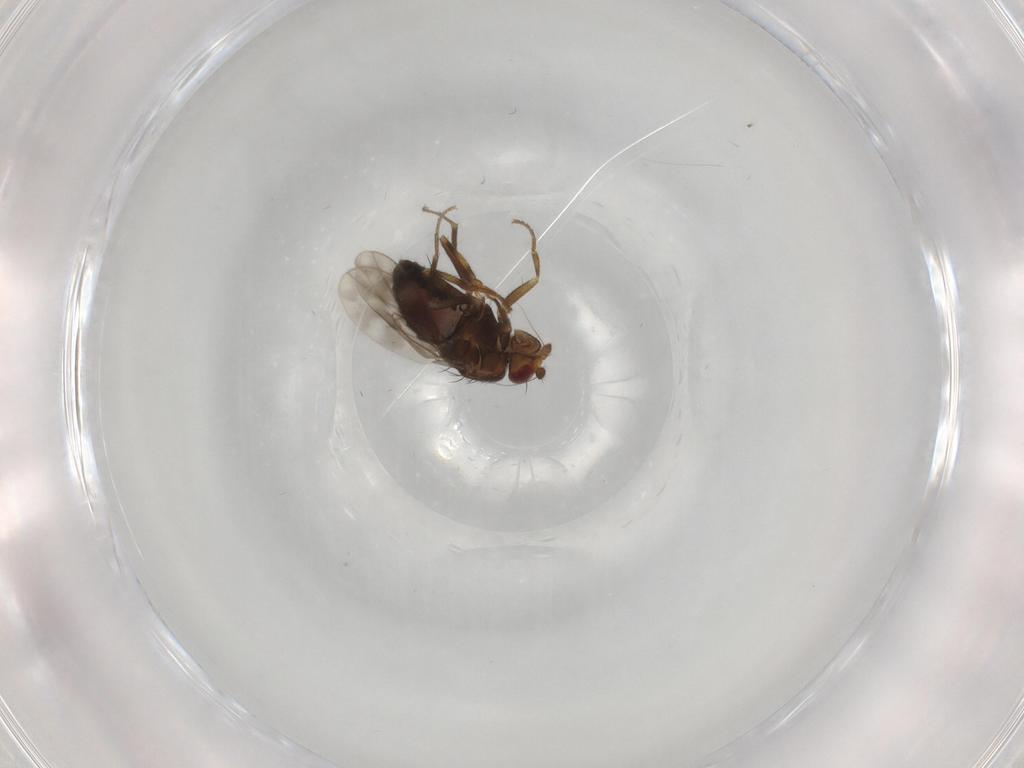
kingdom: Animalia
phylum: Arthropoda
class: Insecta
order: Diptera
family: Sphaeroceridae
